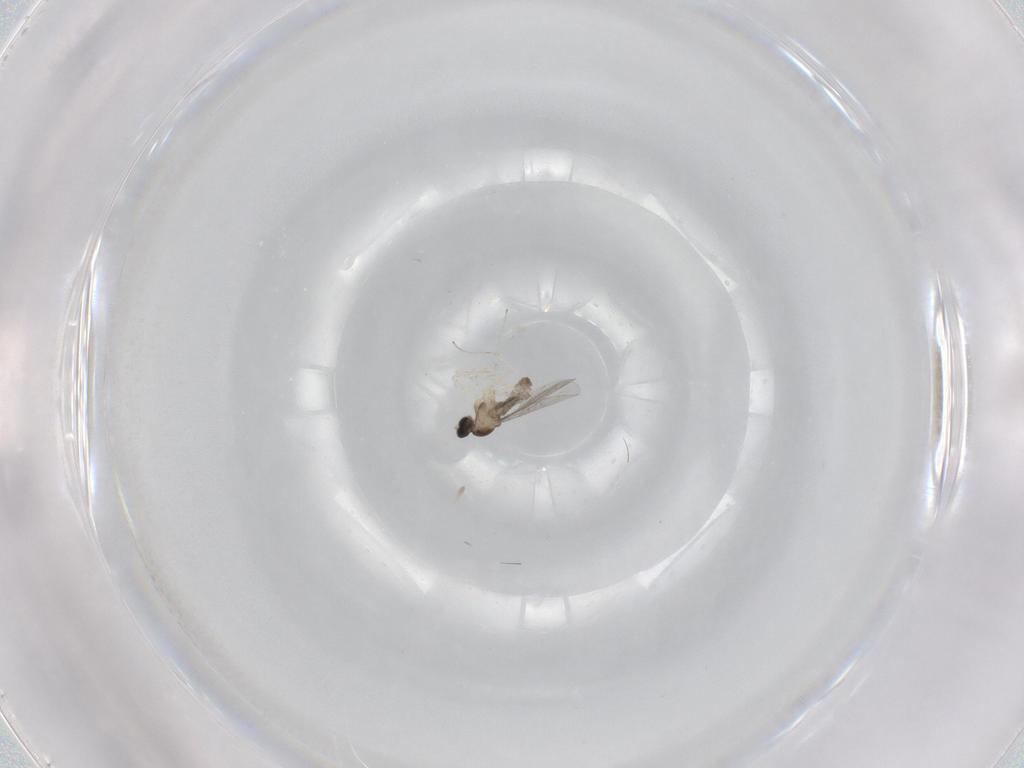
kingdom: Animalia
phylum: Arthropoda
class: Insecta
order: Diptera
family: Cecidomyiidae
